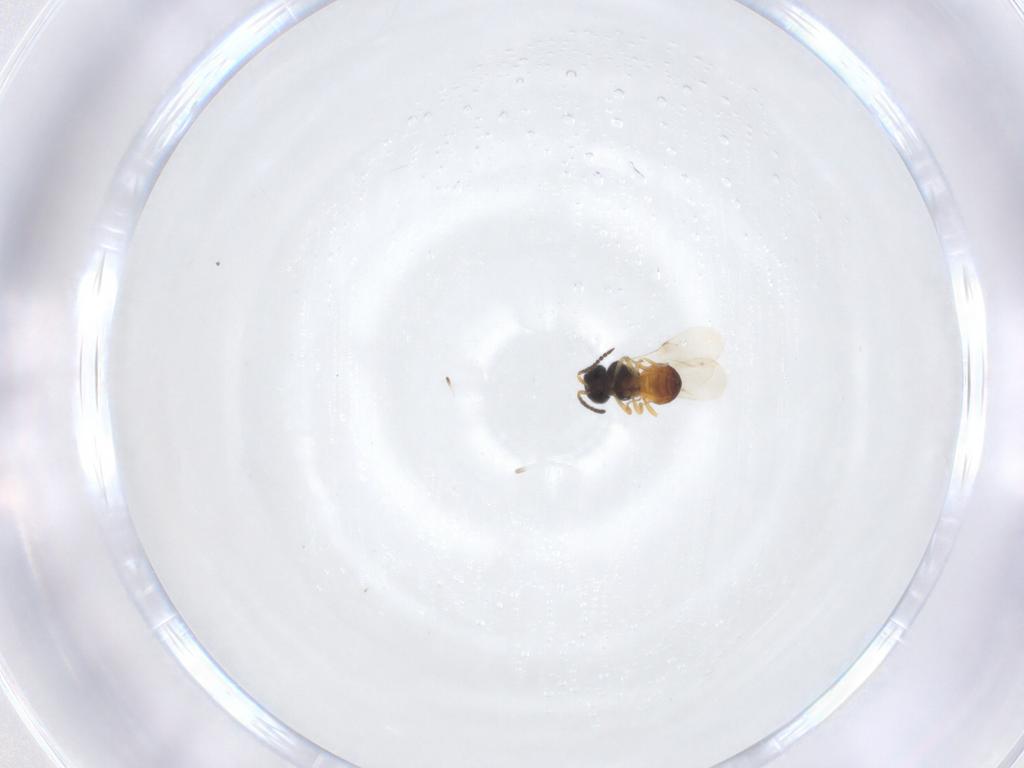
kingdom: Animalia
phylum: Arthropoda
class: Insecta
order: Hymenoptera
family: Scelionidae
